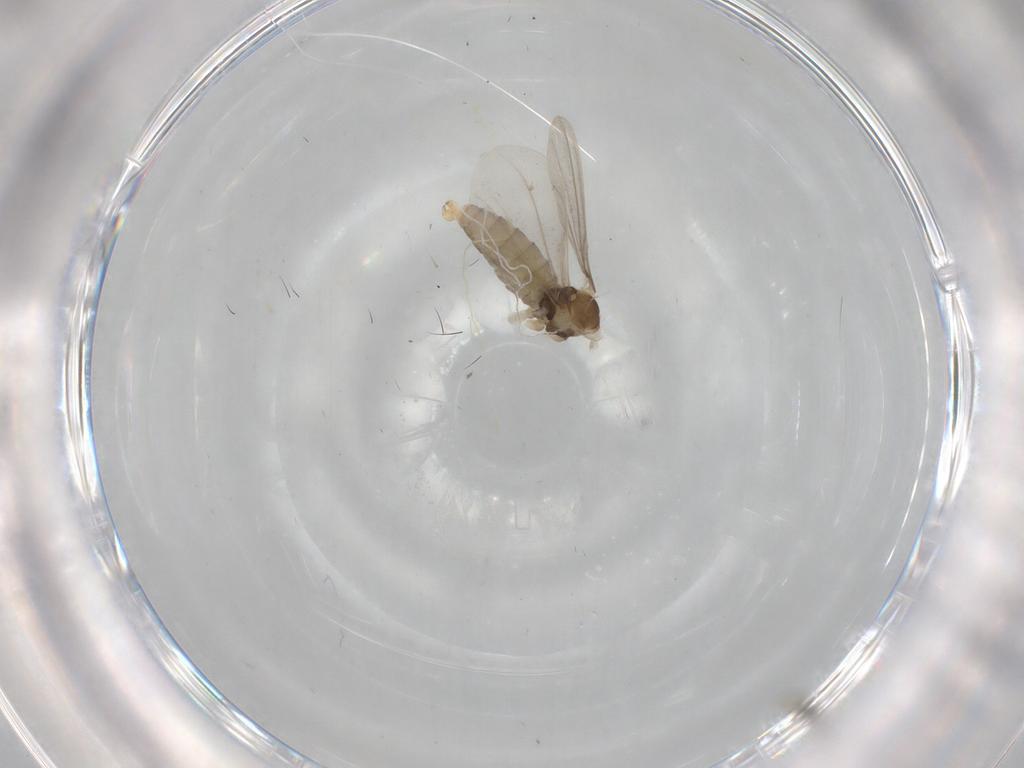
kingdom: Animalia
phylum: Arthropoda
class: Insecta
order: Diptera
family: Cecidomyiidae
